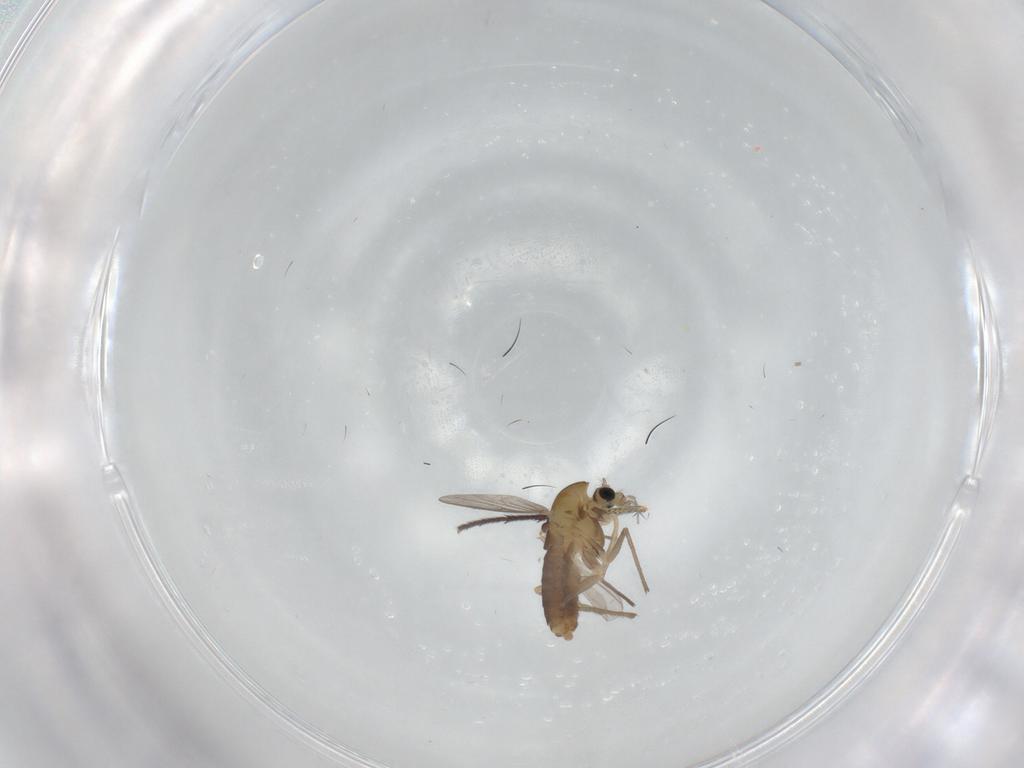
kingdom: Animalia
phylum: Arthropoda
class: Insecta
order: Diptera
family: Chironomidae
